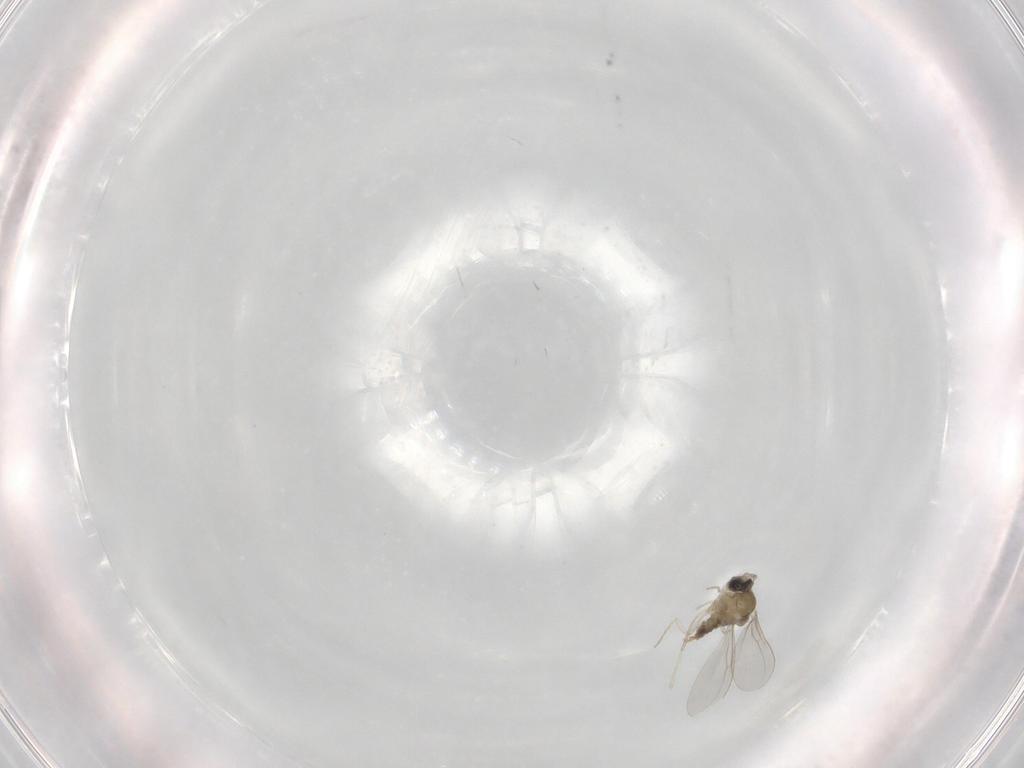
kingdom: Animalia
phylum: Arthropoda
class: Insecta
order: Diptera
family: Cecidomyiidae
